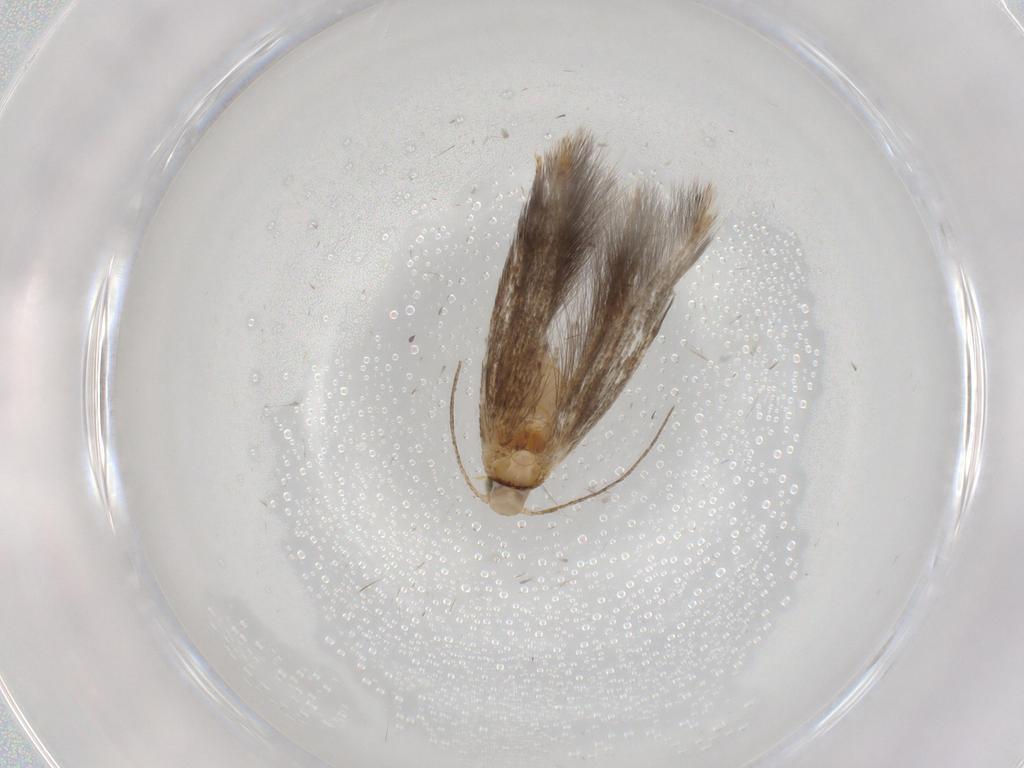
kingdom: Animalia
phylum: Arthropoda
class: Insecta
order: Lepidoptera
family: Tischeriidae
